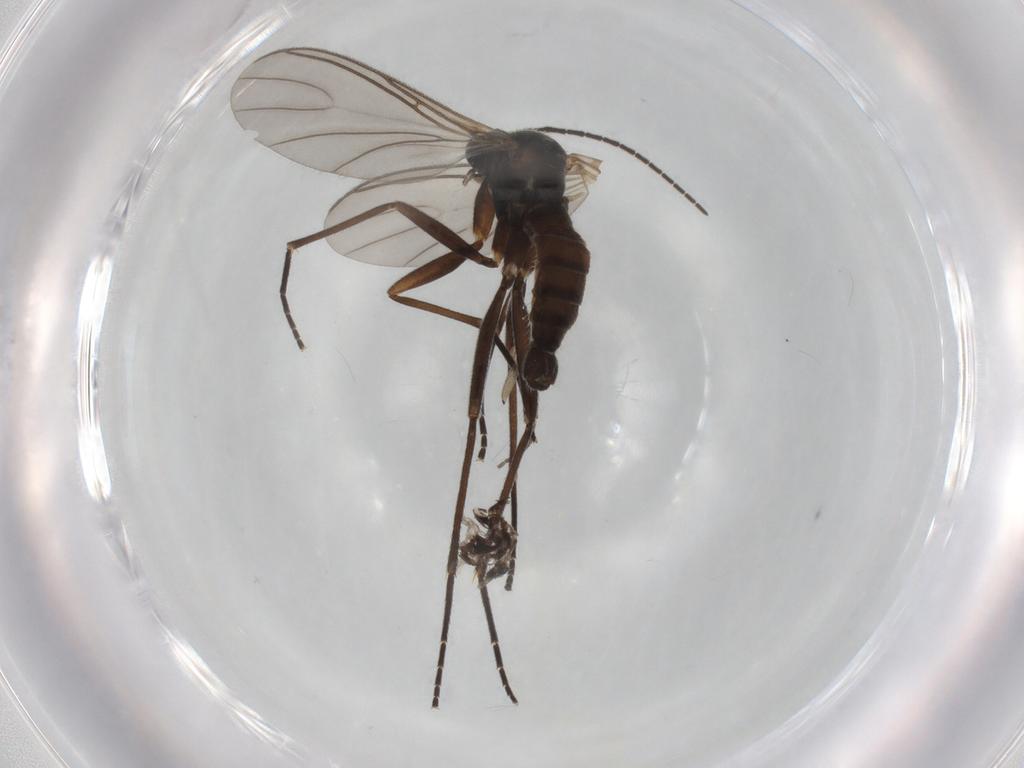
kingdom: Animalia
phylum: Arthropoda
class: Insecta
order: Diptera
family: Sciaridae
